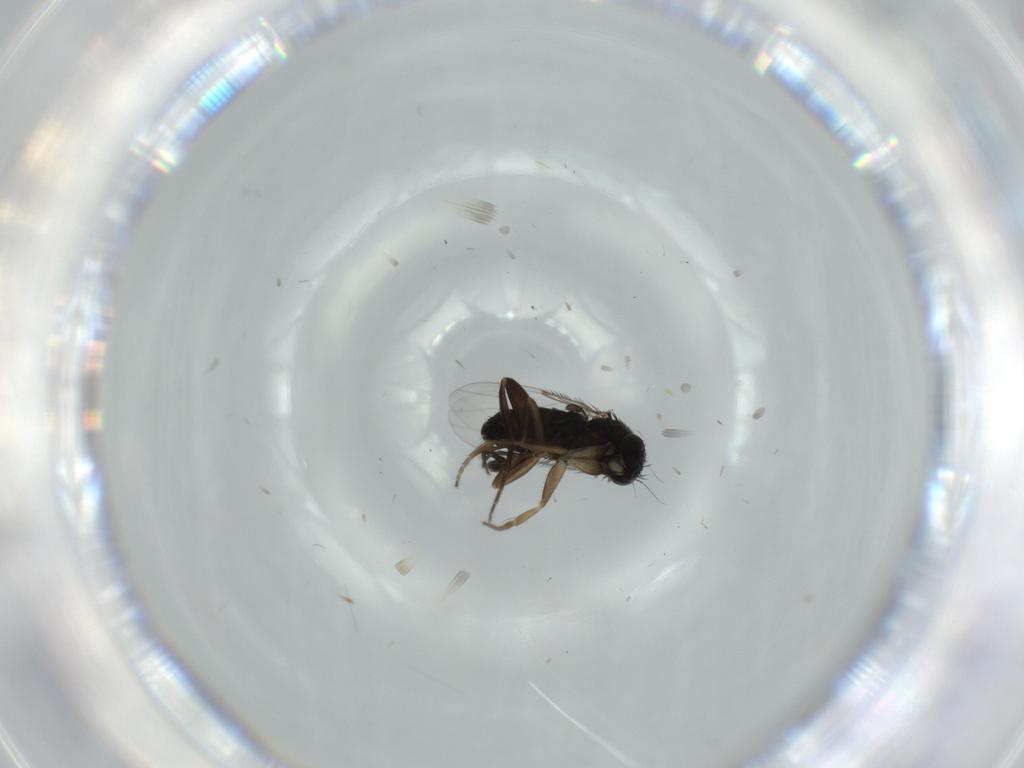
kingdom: Animalia
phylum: Arthropoda
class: Insecta
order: Diptera
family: Phoridae
